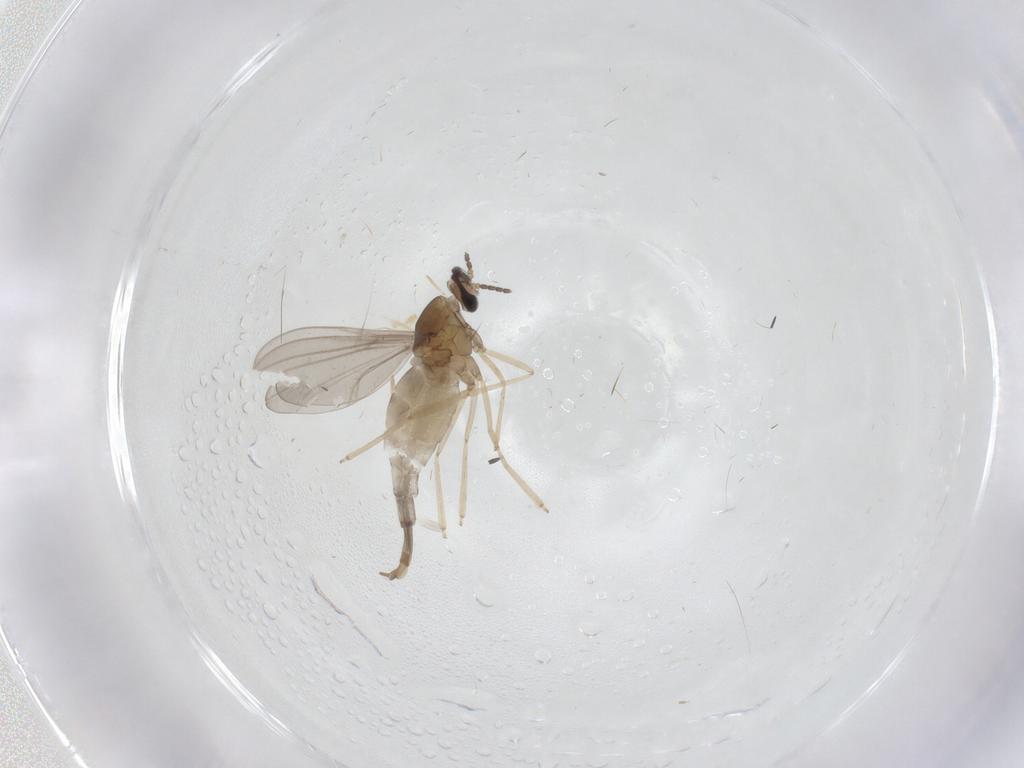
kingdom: Animalia
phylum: Arthropoda
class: Insecta
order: Diptera
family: Cecidomyiidae
